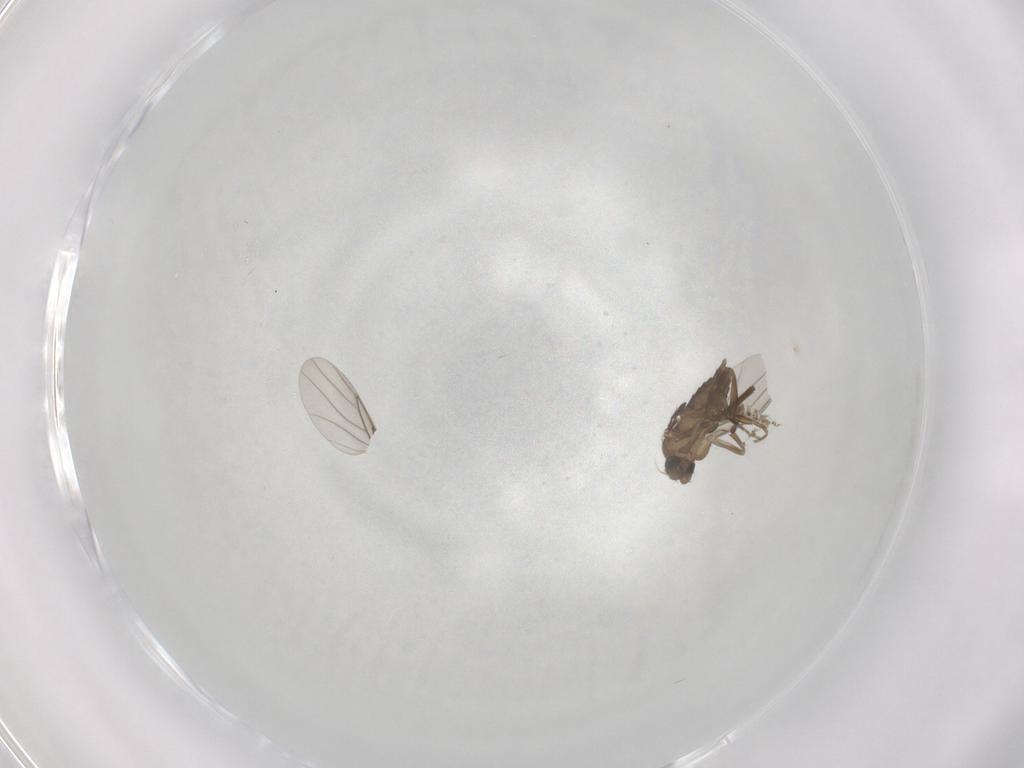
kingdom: Animalia
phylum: Arthropoda
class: Insecta
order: Diptera
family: Phoridae
